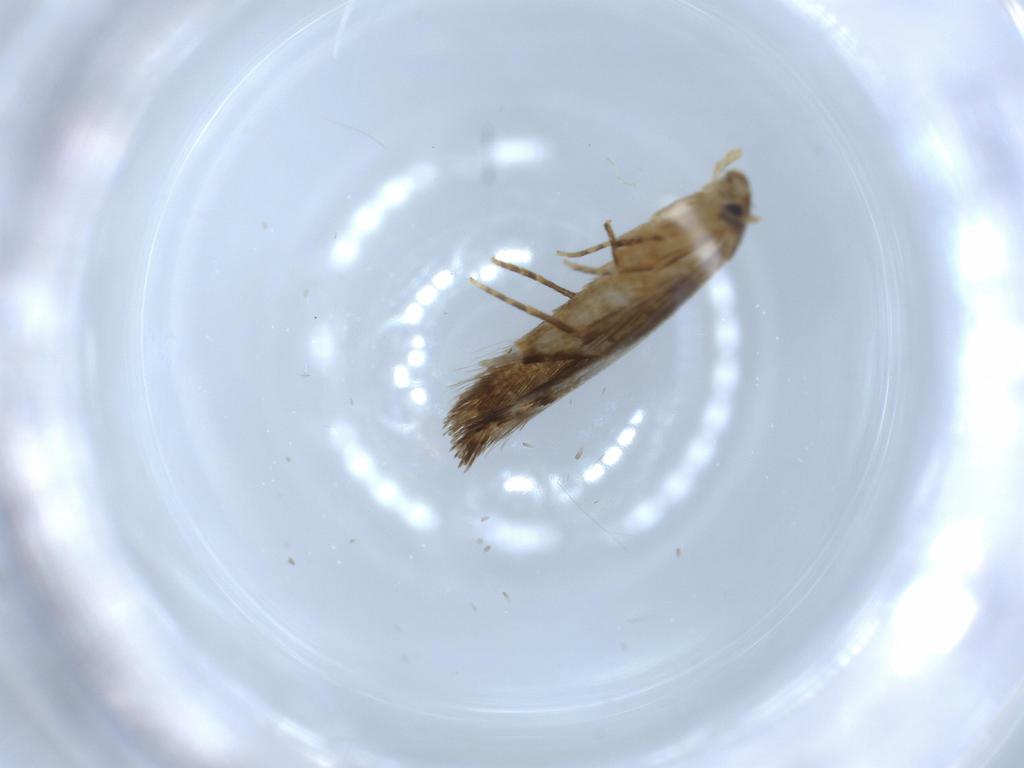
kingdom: Animalia
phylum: Arthropoda
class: Insecta
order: Lepidoptera
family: Tineidae
